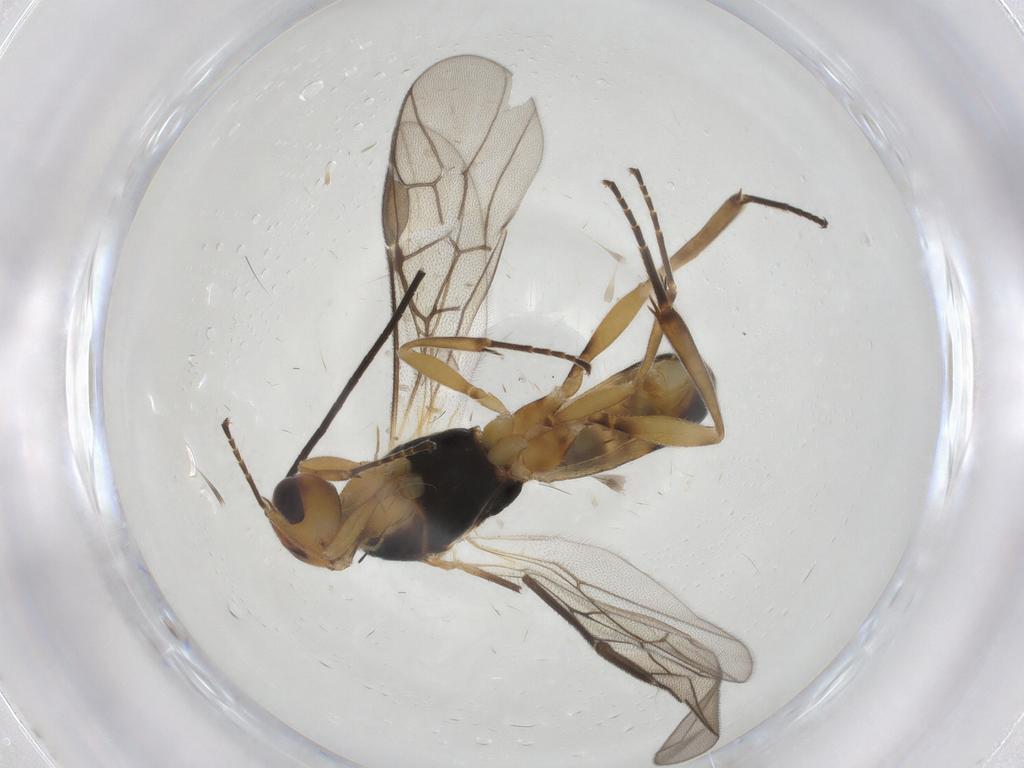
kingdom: Animalia
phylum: Arthropoda
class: Insecta
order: Hymenoptera
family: Braconidae
